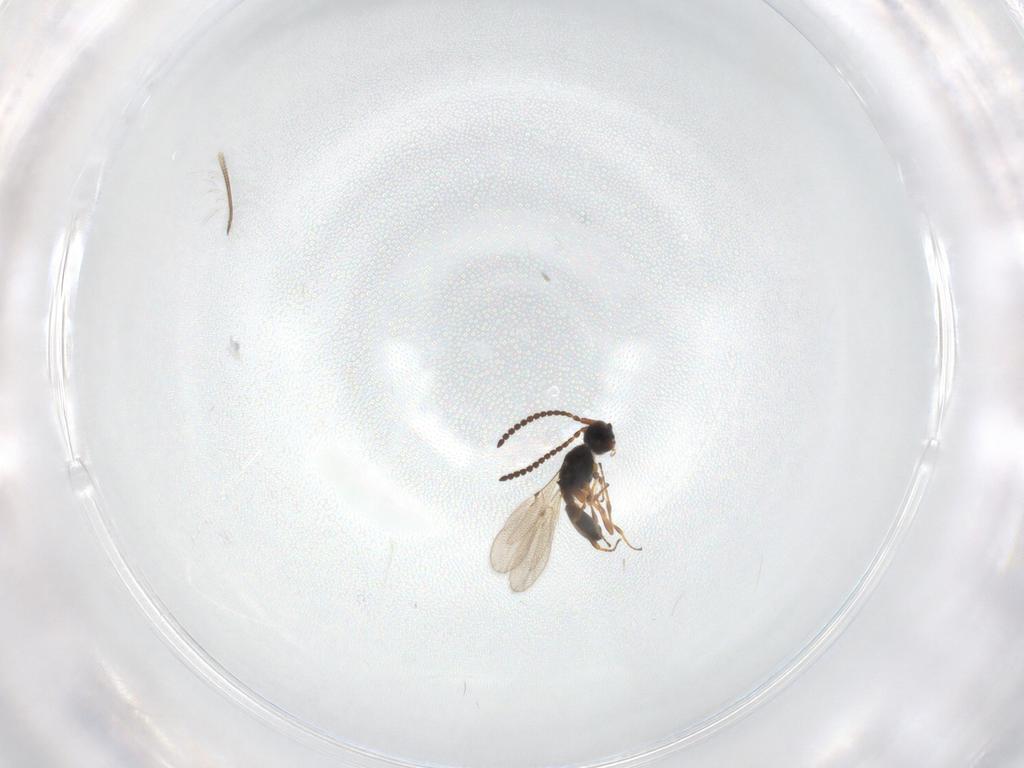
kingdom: Animalia
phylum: Arthropoda
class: Insecta
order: Hymenoptera
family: Diapriidae
